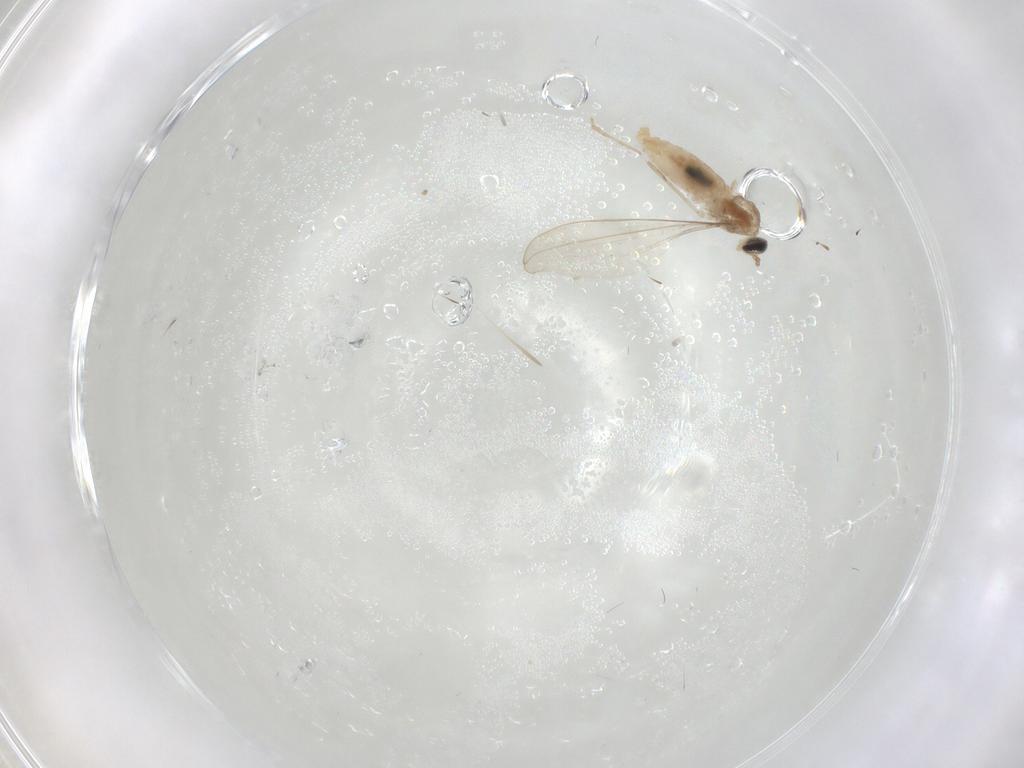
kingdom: Animalia
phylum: Arthropoda
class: Insecta
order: Diptera
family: Cecidomyiidae
